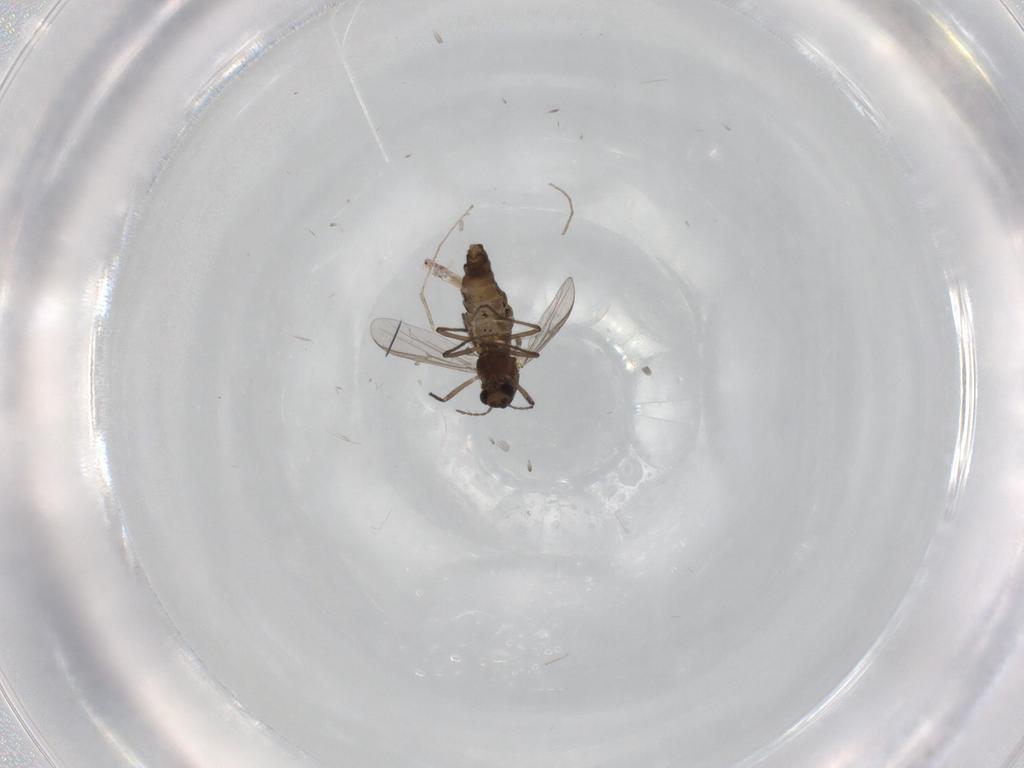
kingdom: Animalia
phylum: Arthropoda
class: Insecta
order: Diptera
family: Chironomidae
